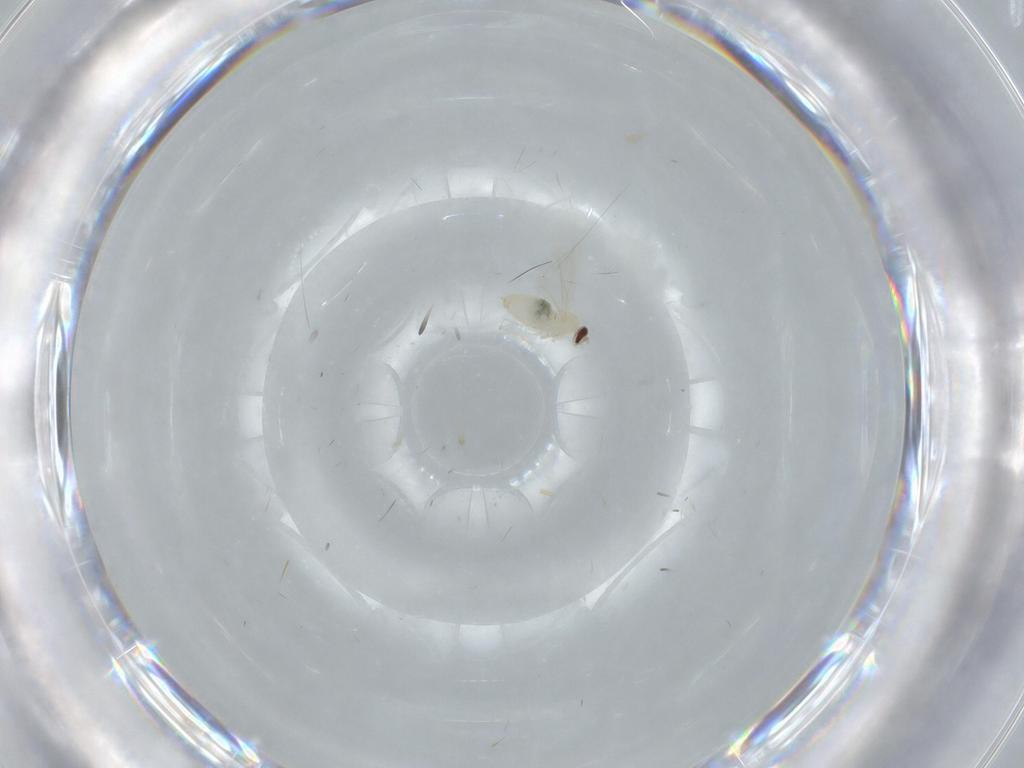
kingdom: Animalia
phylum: Arthropoda
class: Insecta
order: Diptera
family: Cecidomyiidae
